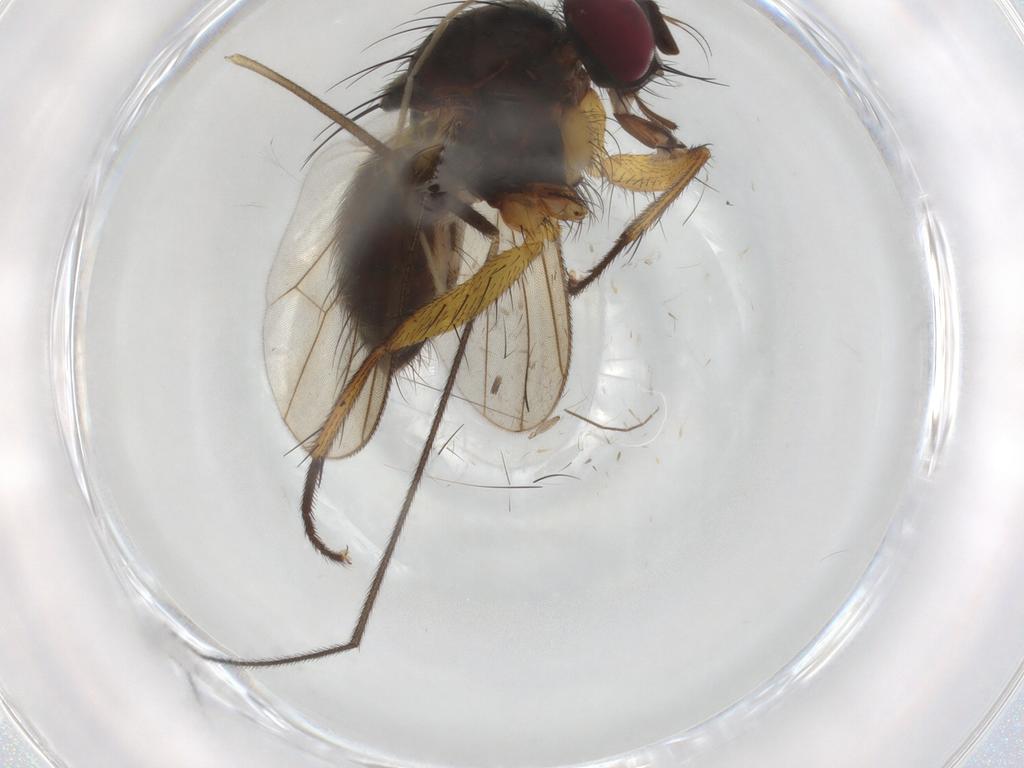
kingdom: Animalia
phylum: Arthropoda
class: Insecta
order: Diptera
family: Muscidae
